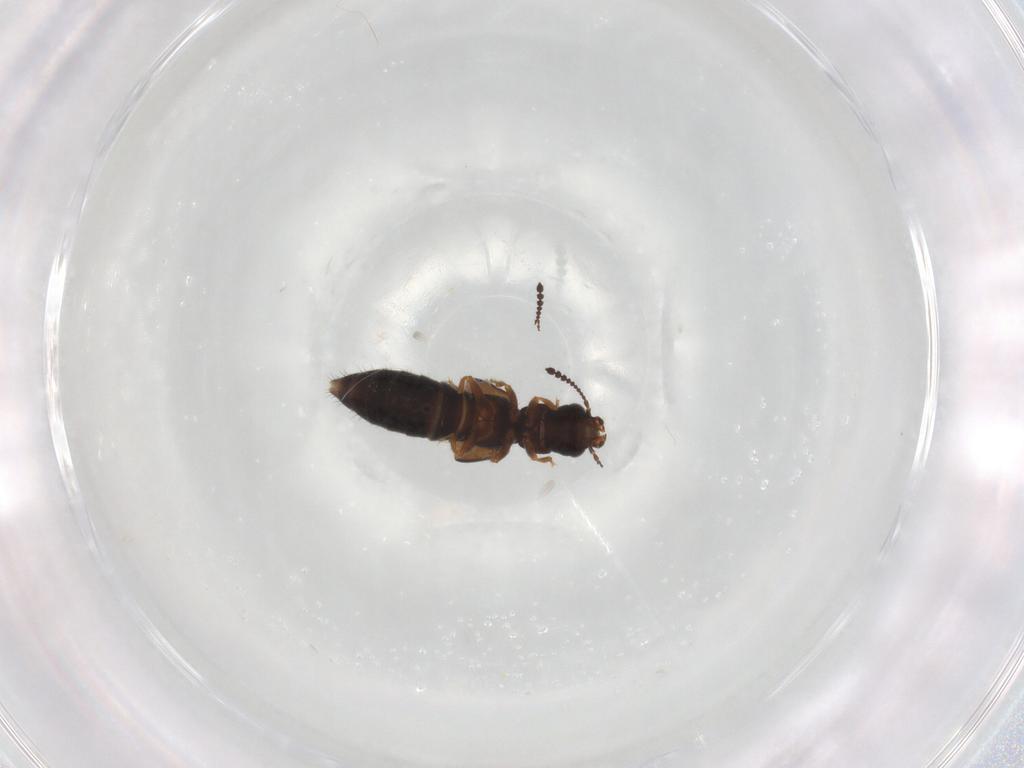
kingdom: Animalia
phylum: Arthropoda
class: Insecta
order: Coleoptera
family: Staphylinidae
